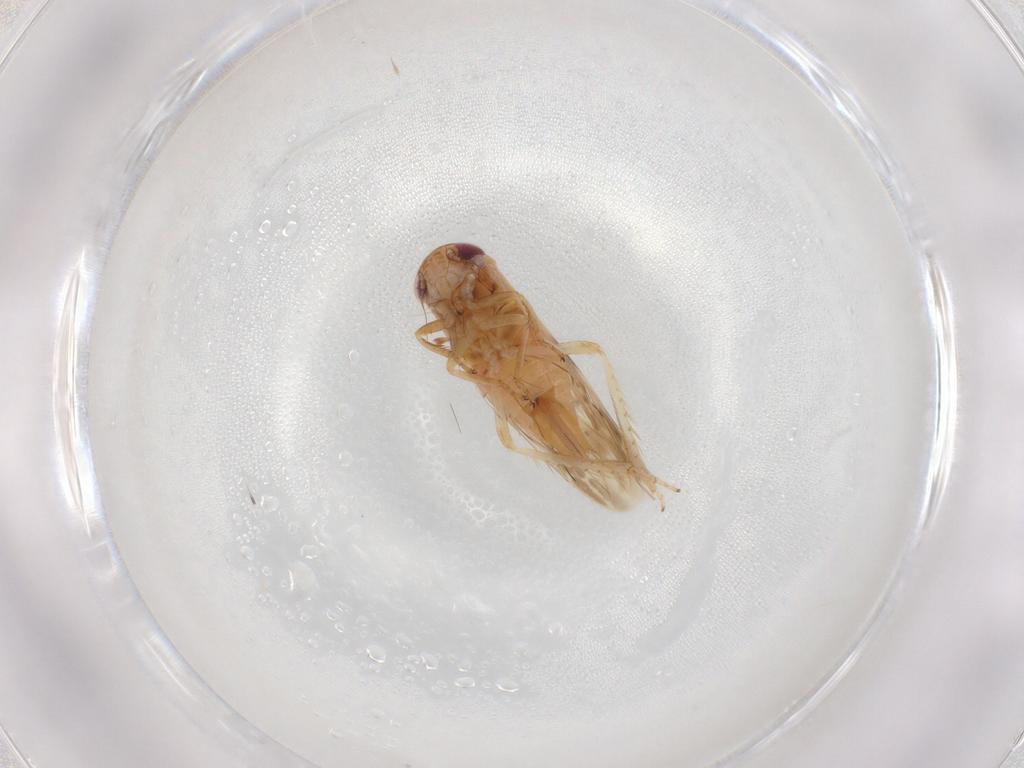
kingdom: Animalia
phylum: Arthropoda
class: Insecta
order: Hemiptera
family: Cicadellidae
